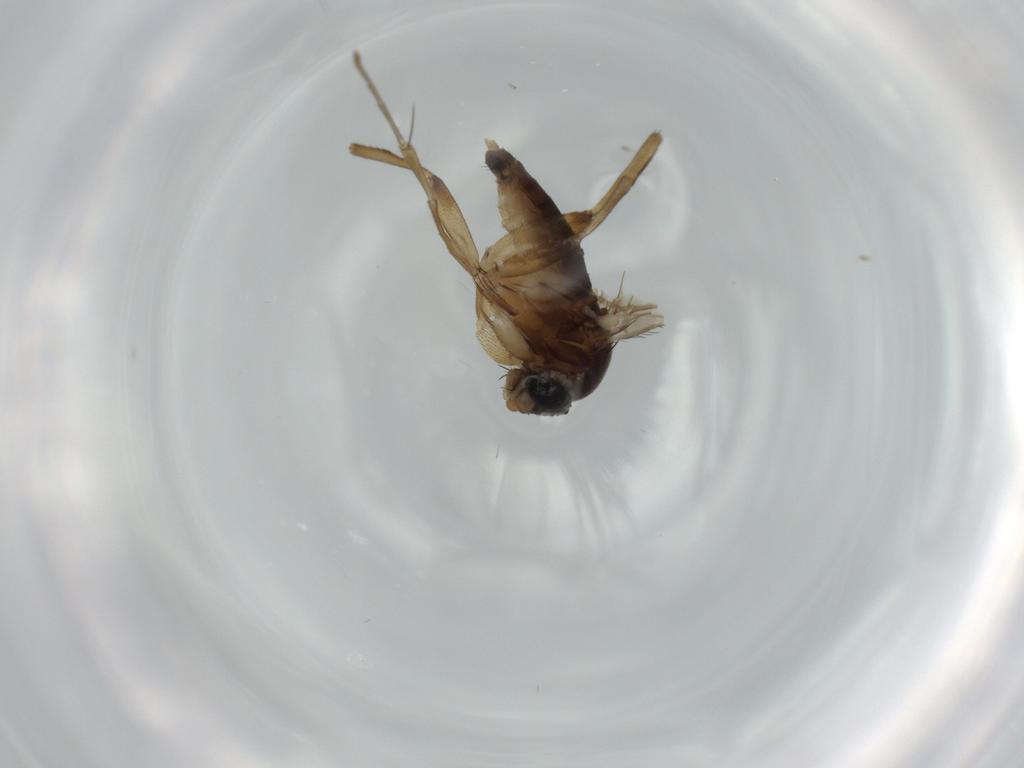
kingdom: Animalia
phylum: Arthropoda
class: Insecta
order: Diptera
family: Phoridae
